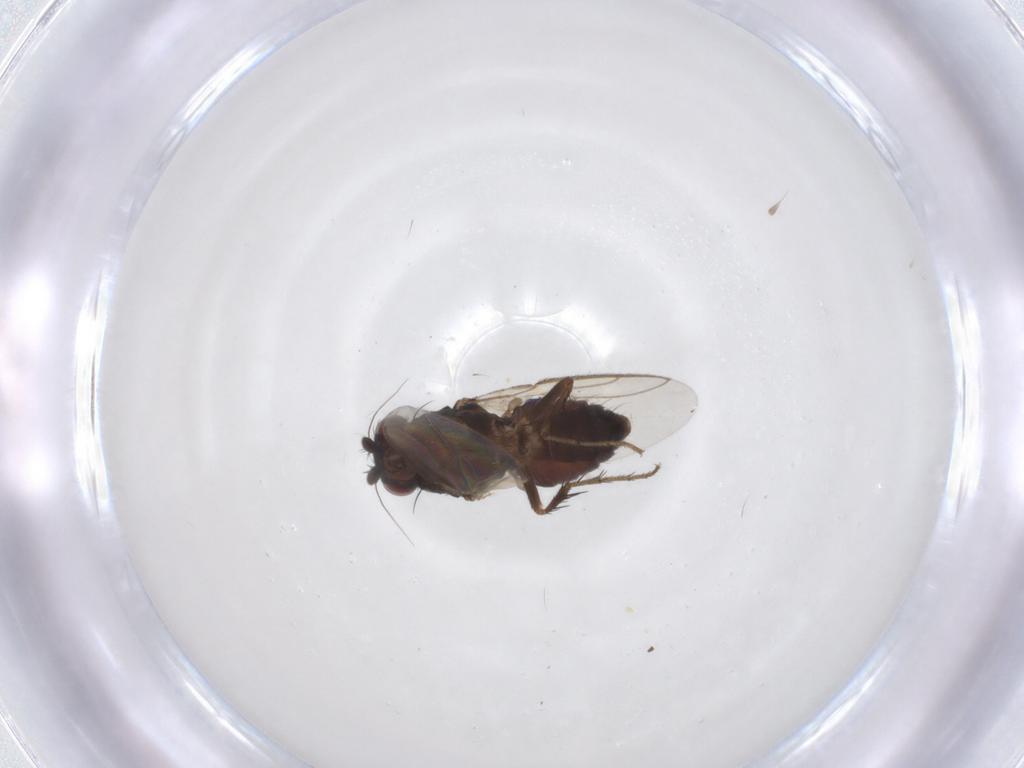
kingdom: Animalia
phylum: Arthropoda
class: Insecta
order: Diptera
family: Sphaeroceridae
